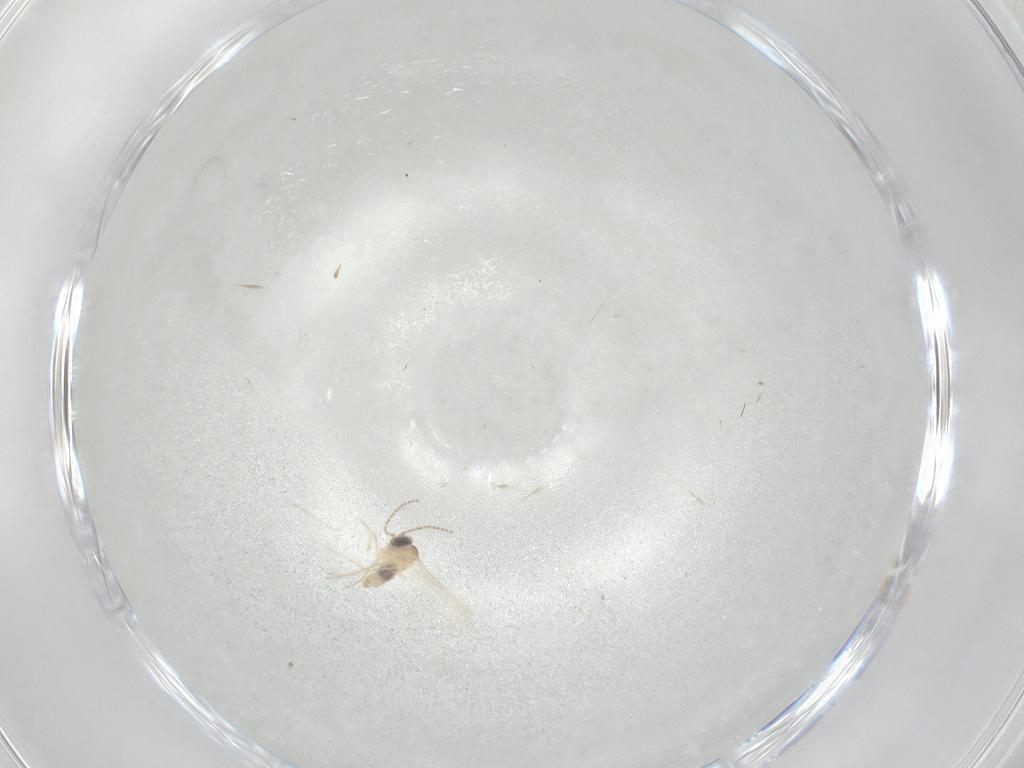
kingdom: Animalia
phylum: Arthropoda
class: Insecta
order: Diptera
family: Cecidomyiidae
